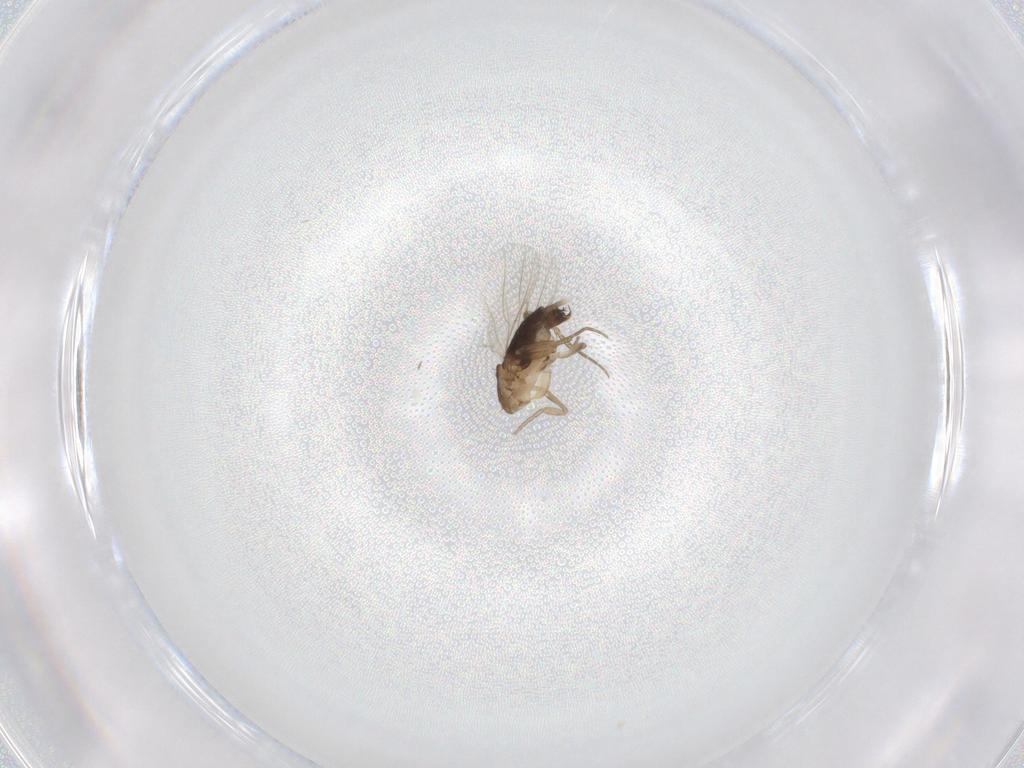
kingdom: Animalia
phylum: Arthropoda
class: Insecta
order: Diptera
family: Phoridae
